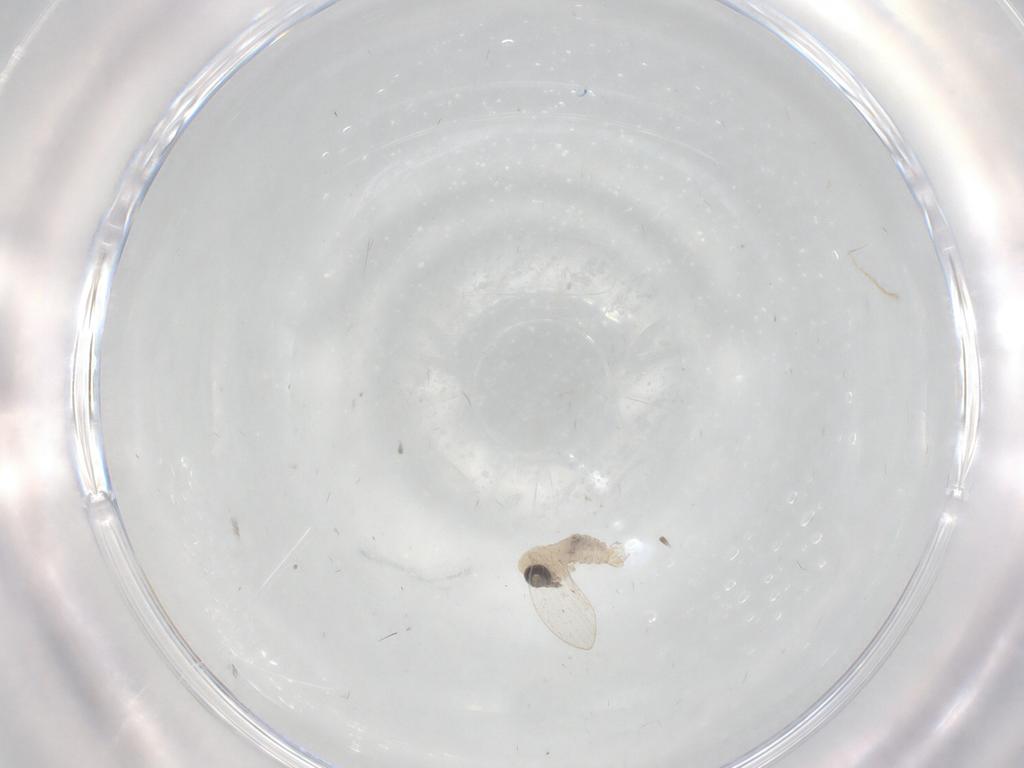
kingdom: Animalia
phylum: Arthropoda
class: Insecta
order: Diptera
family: Psychodidae
